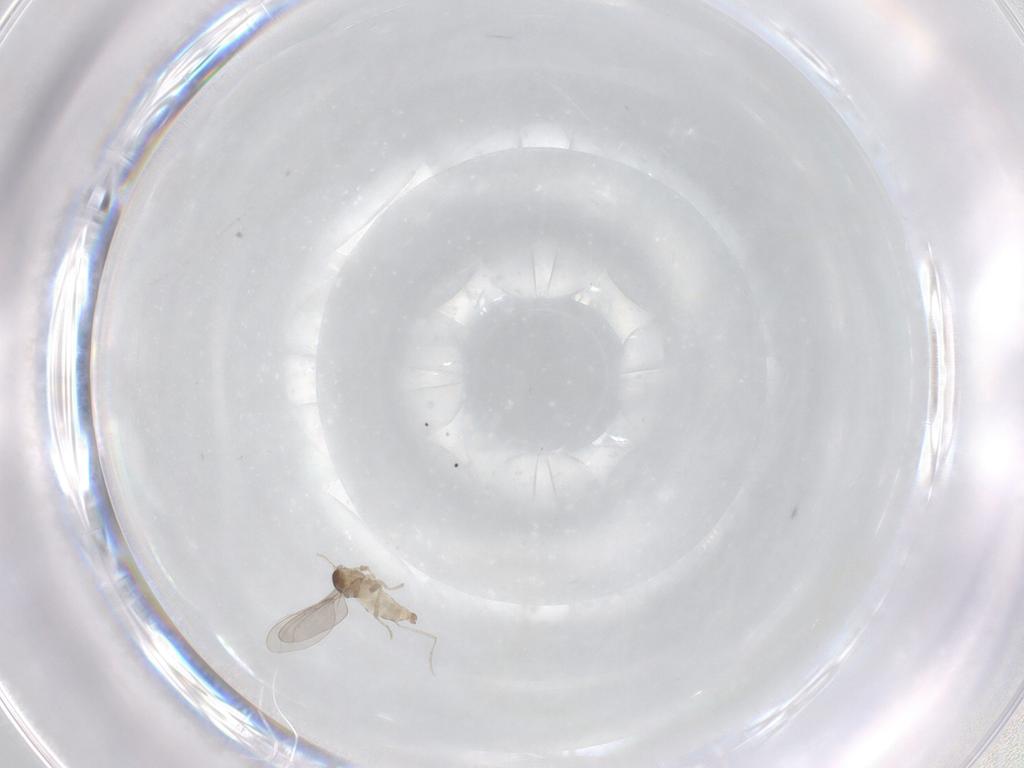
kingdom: Animalia
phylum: Arthropoda
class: Insecta
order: Diptera
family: Cecidomyiidae
